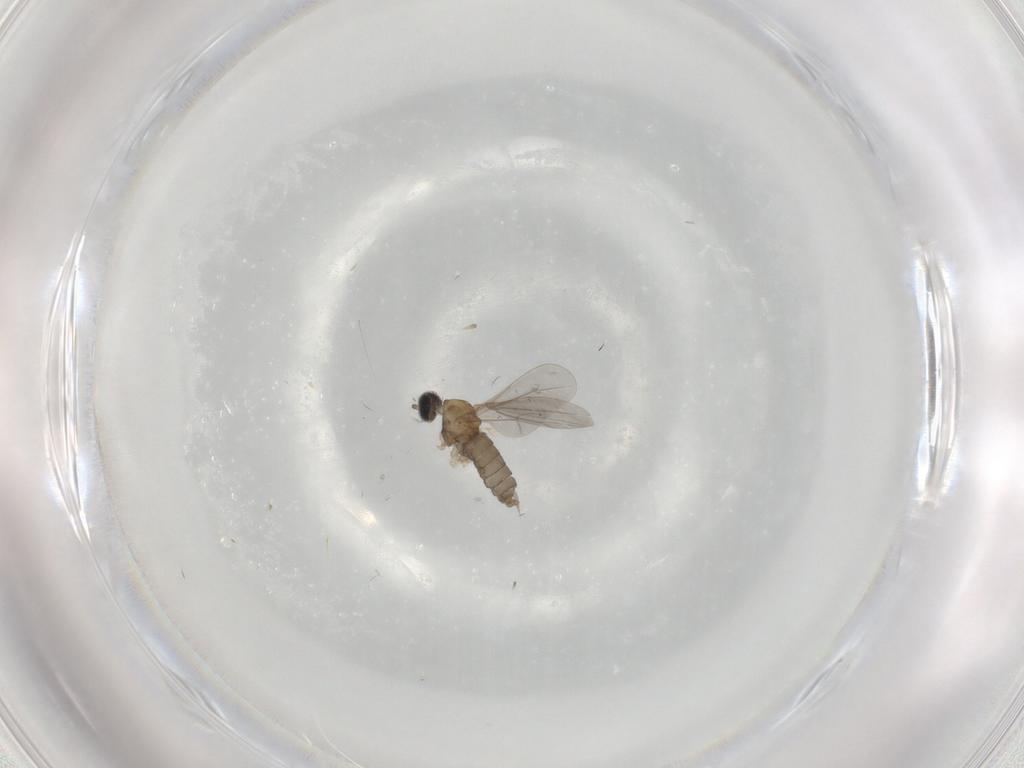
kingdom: Animalia
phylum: Arthropoda
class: Insecta
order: Diptera
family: Cecidomyiidae
